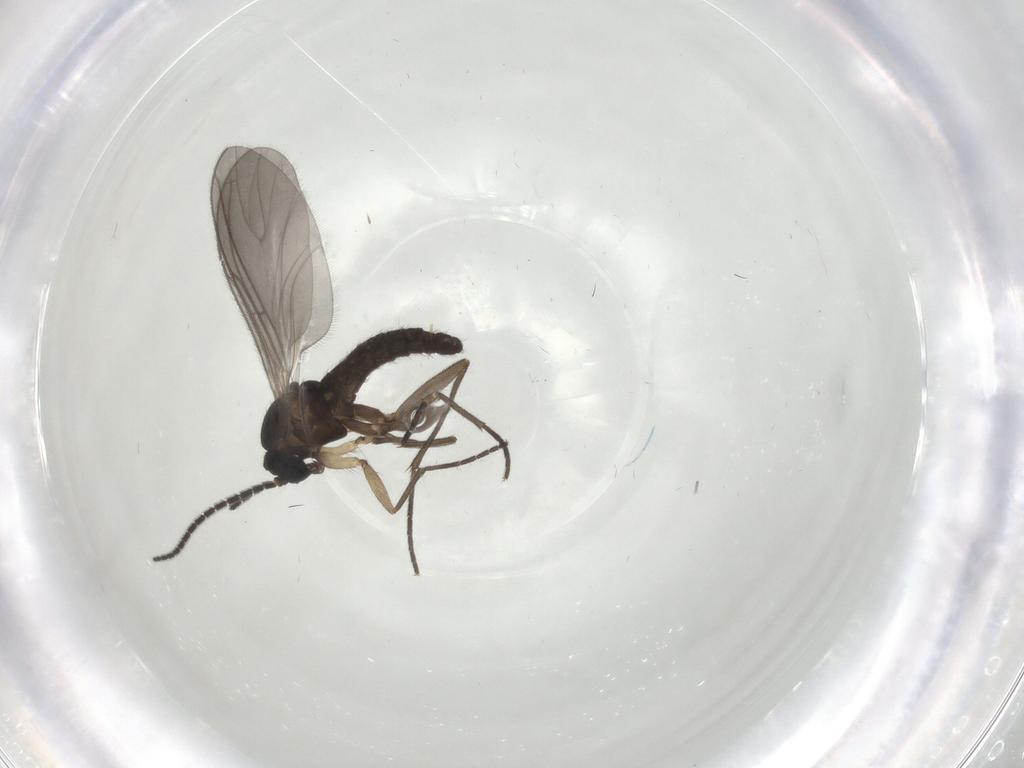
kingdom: Animalia
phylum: Arthropoda
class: Insecta
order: Diptera
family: Sciaridae
